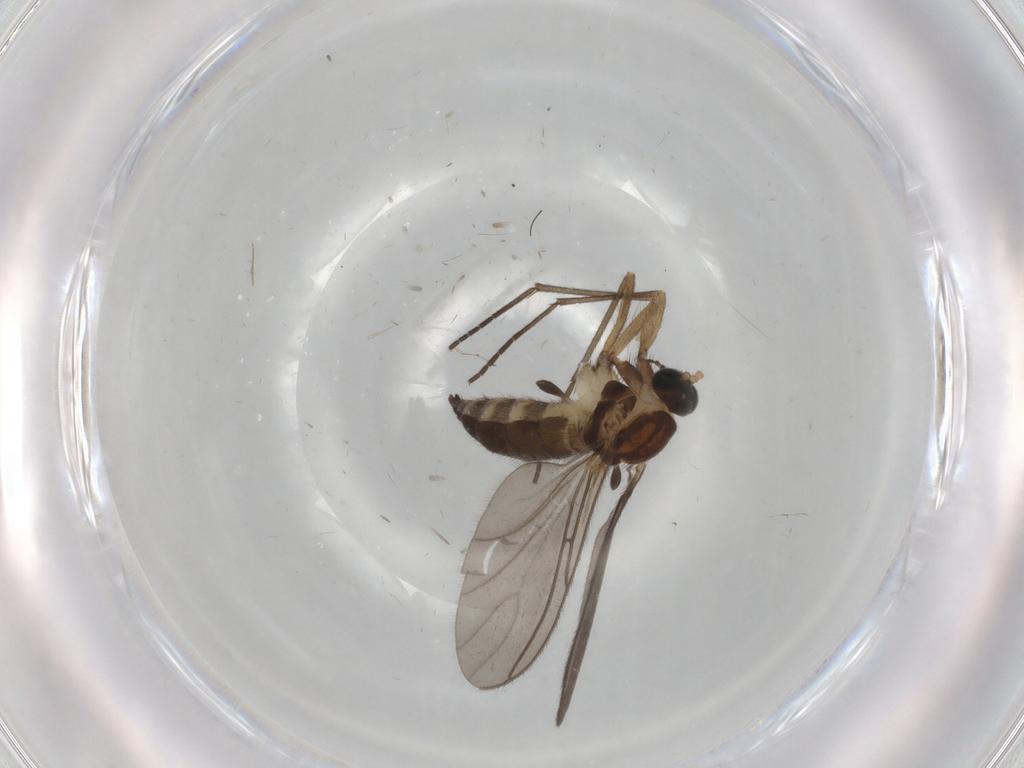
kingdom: Animalia
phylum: Arthropoda
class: Insecta
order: Diptera
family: Sciaridae
